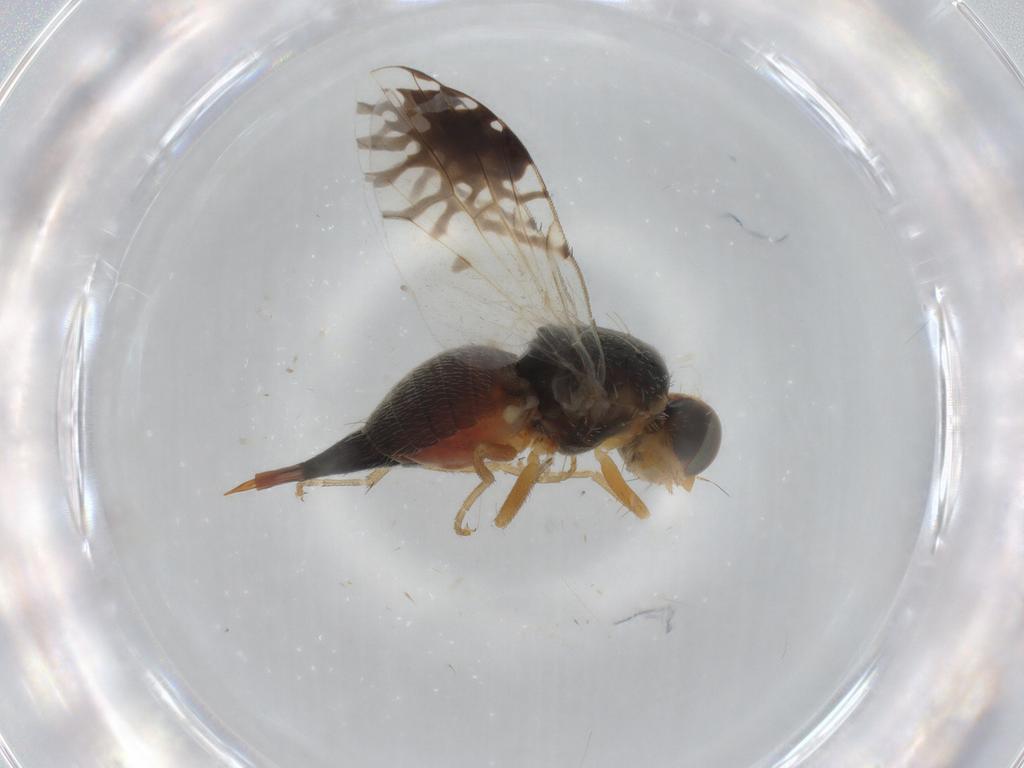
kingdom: Animalia
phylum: Arthropoda
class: Insecta
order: Diptera
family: Tephritidae
